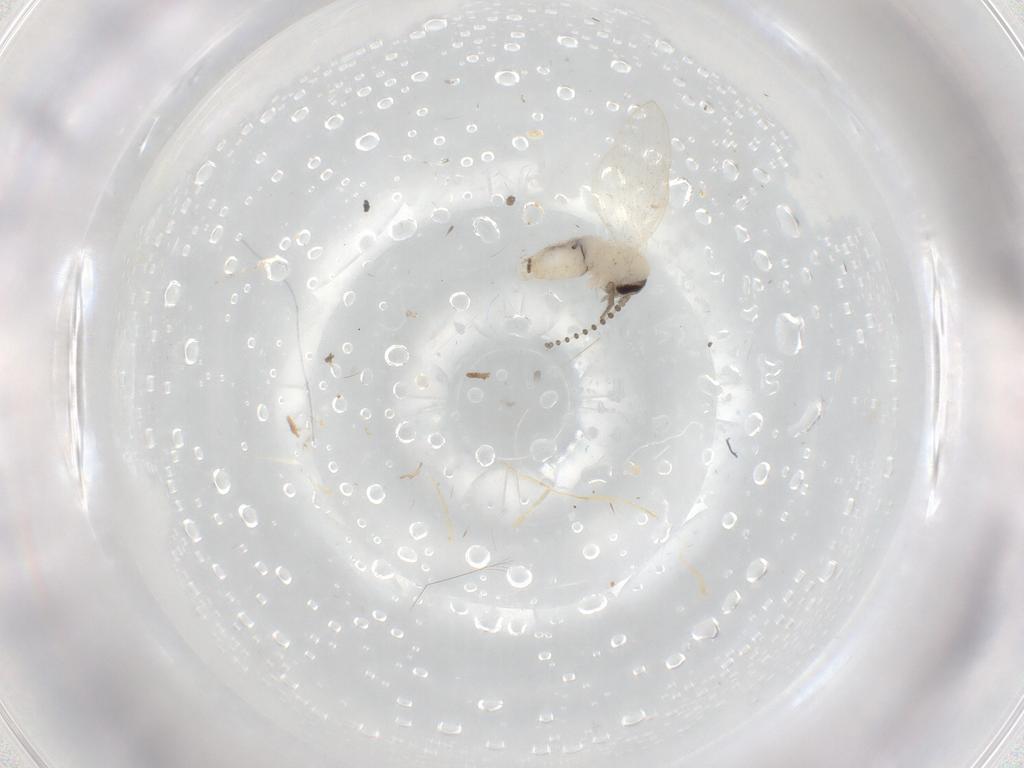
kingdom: Animalia
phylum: Arthropoda
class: Insecta
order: Diptera
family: Psychodidae
